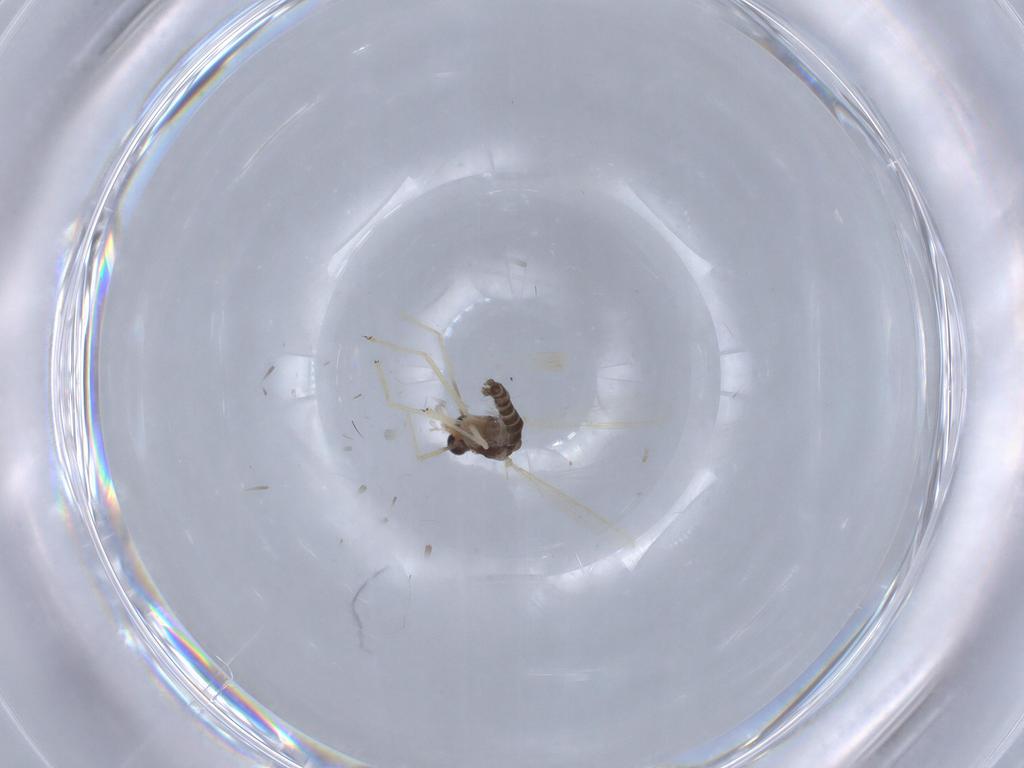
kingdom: Animalia
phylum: Arthropoda
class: Insecta
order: Diptera
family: Chironomidae
